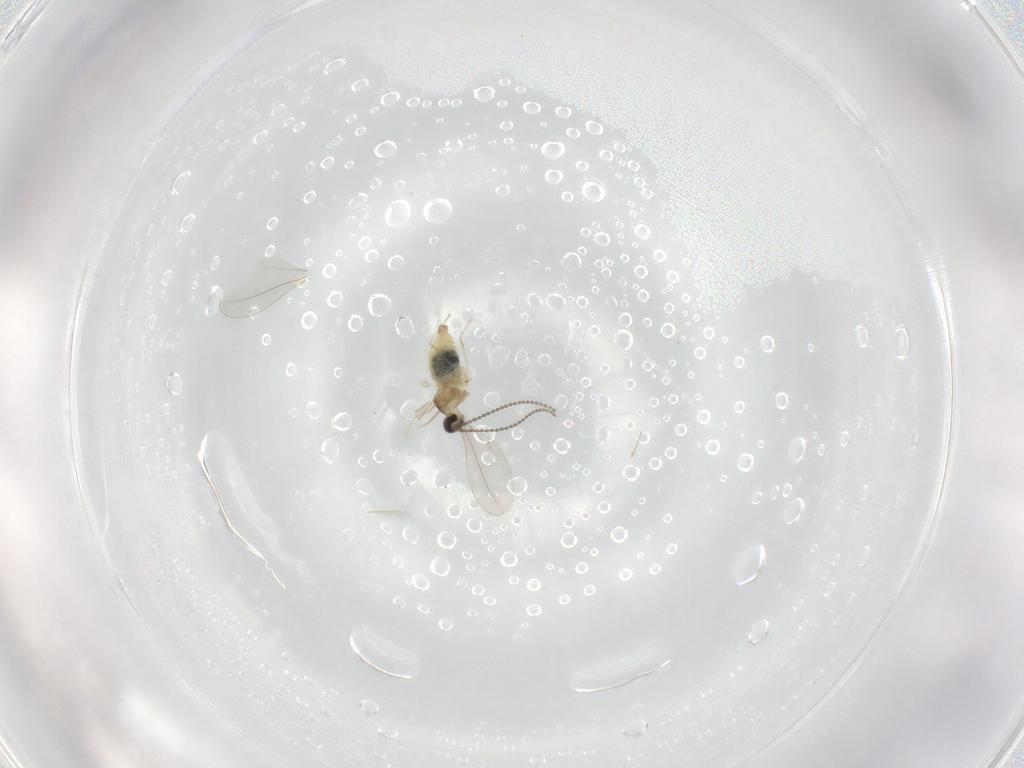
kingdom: Animalia
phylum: Arthropoda
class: Insecta
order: Diptera
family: Cecidomyiidae
